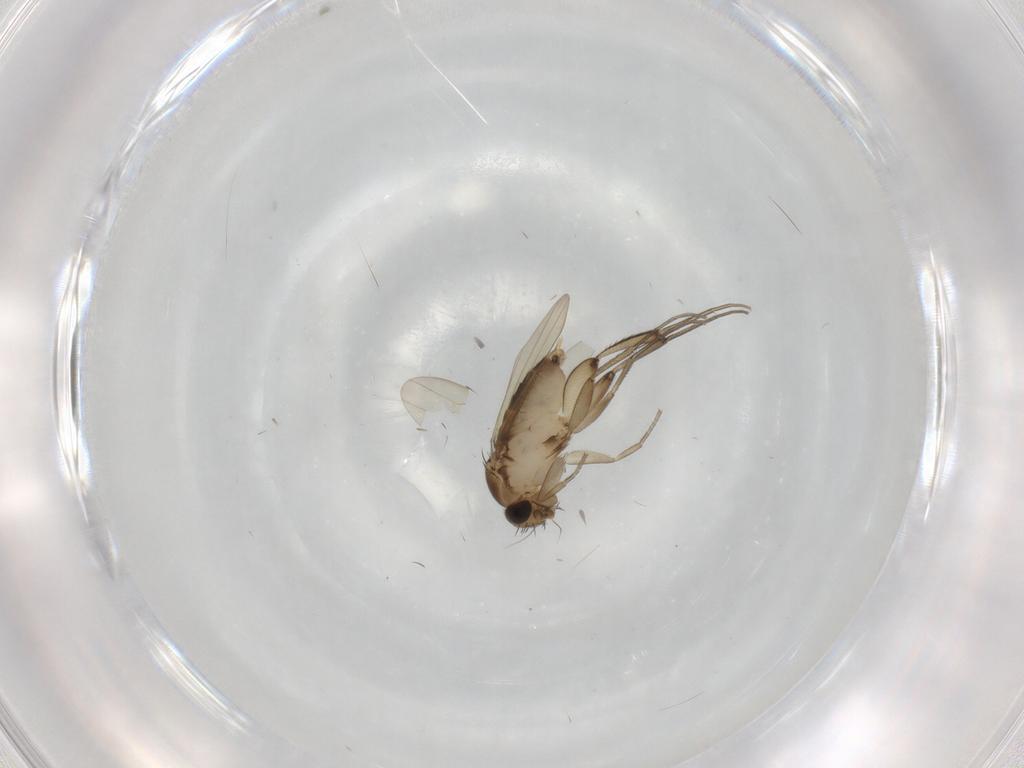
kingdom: Animalia
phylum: Arthropoda
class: Insecta
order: Diptera
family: Phoridae
